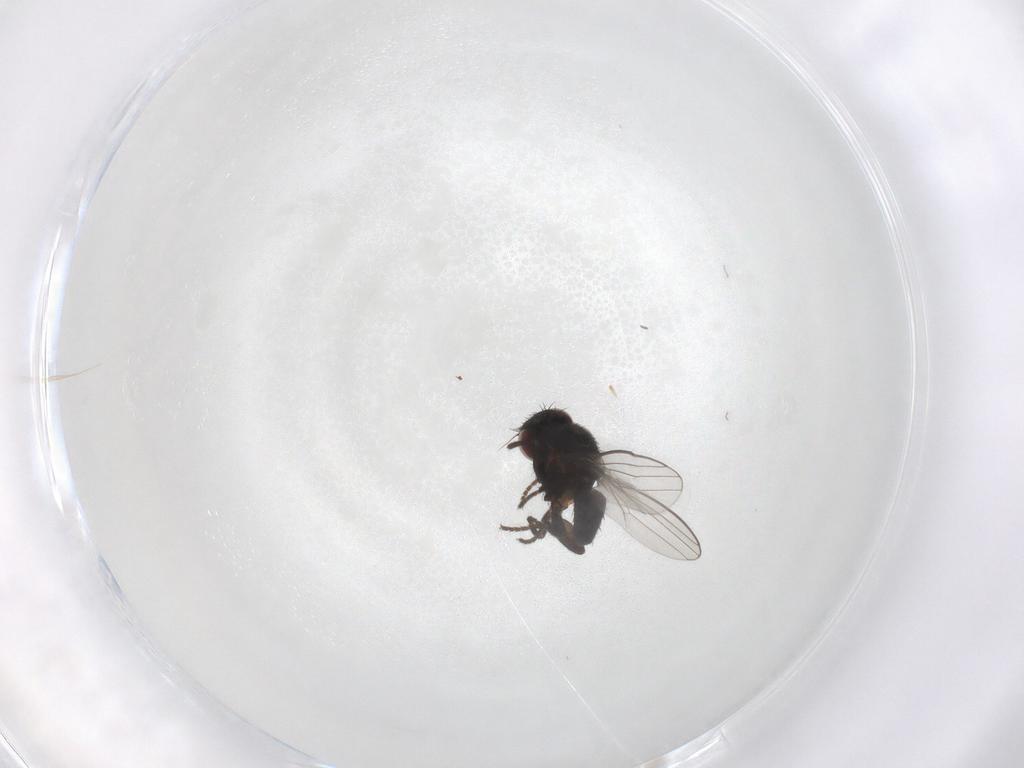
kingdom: Animalia
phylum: Arthropoda
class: Insecta
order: Diptera
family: Milichiidae
